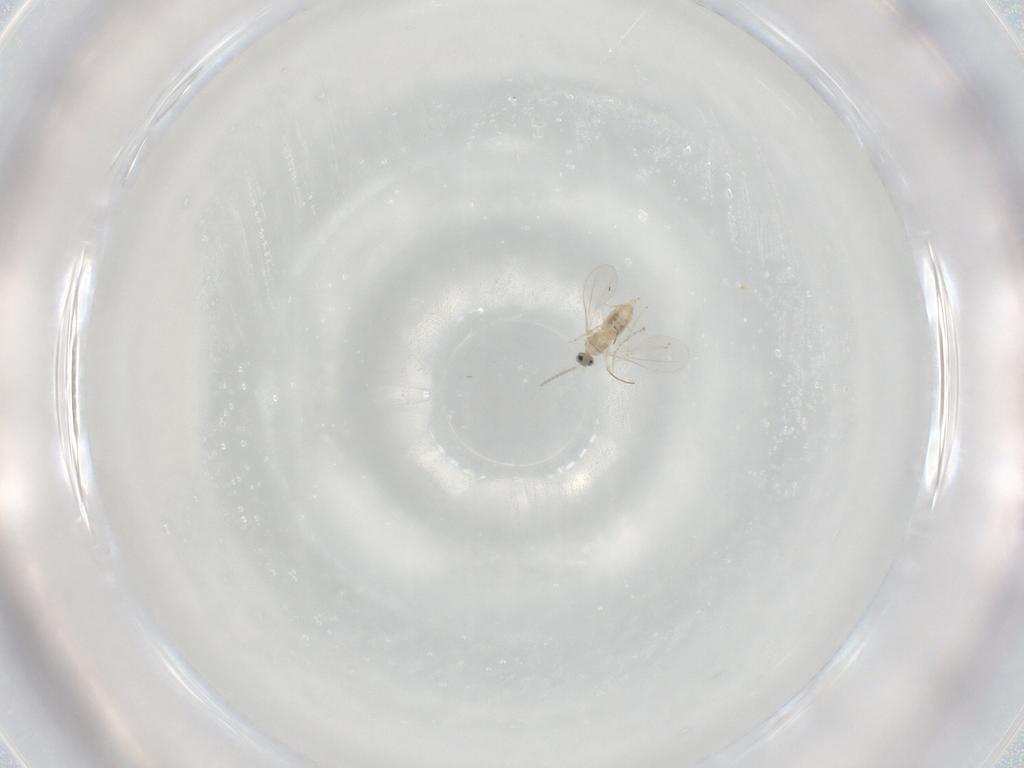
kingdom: Animalia
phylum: Arthropoda
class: Insecta
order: Diptera
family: Cecidomyiidae
